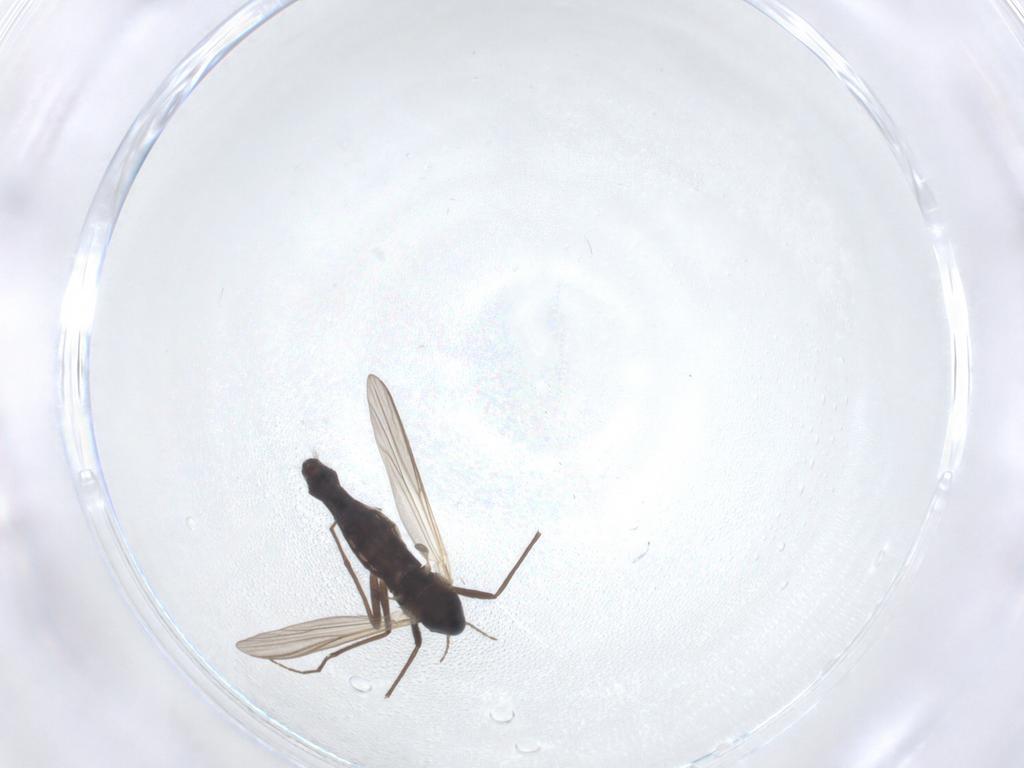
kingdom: Animalia
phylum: Arthropoda
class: Insecta
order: Diptera
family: Chironomidae
